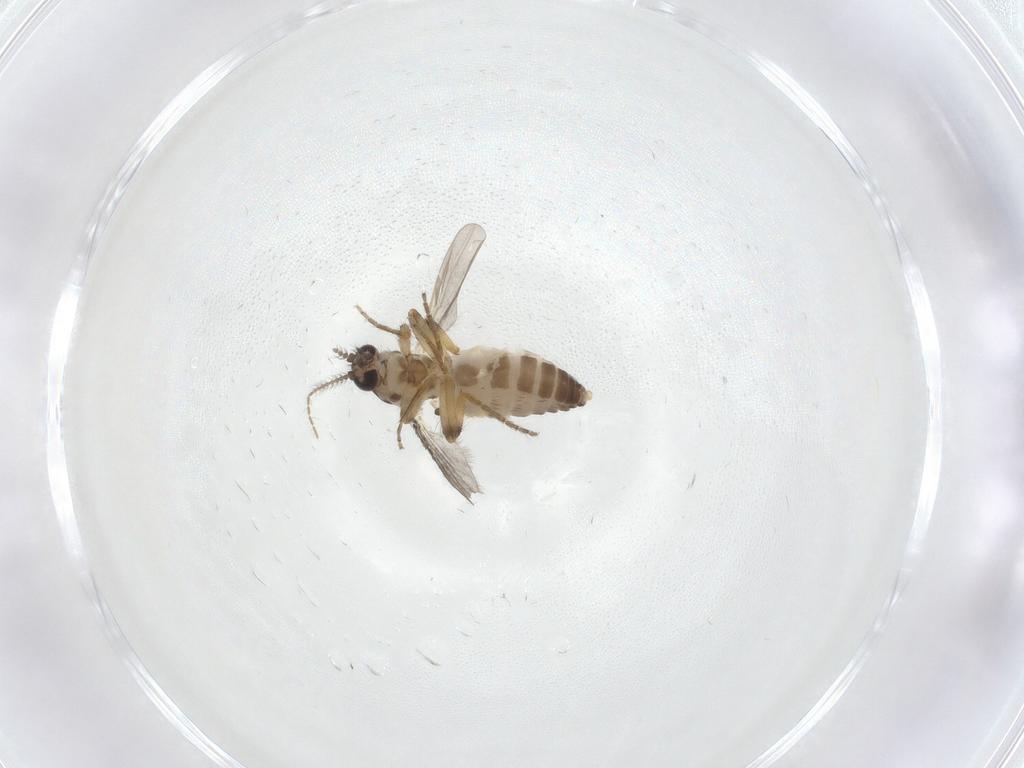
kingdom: Animalia
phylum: Arthropoda
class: Insecta
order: Diptera
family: Ceratopogonidae
